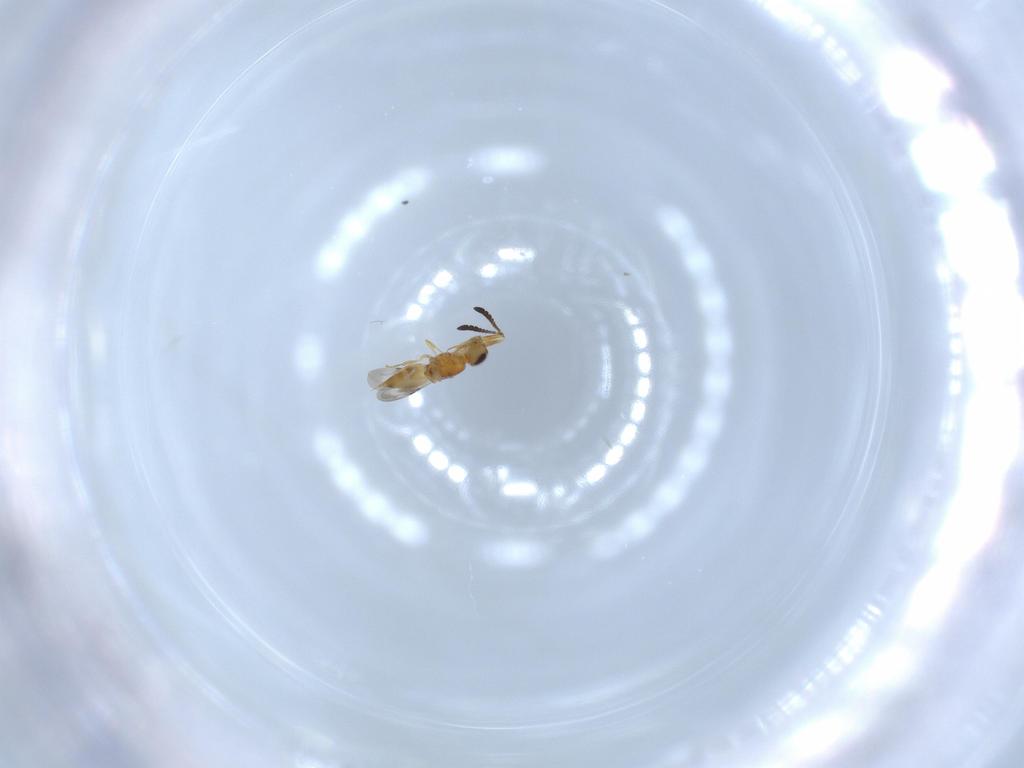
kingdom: Animalia
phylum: Arthropoda
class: Insecta
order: Hymenoptera
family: Ceraphronidae
